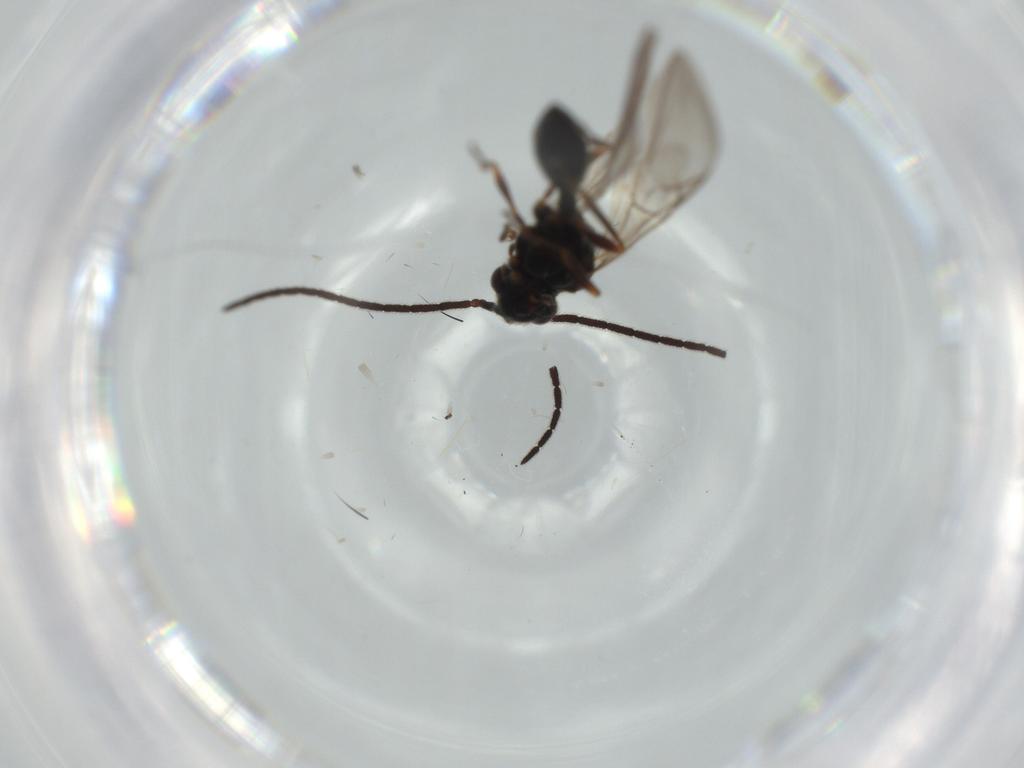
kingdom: Animalia
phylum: Arthropoda
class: Insecta
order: Hymenoptera
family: Ichneumonidae
